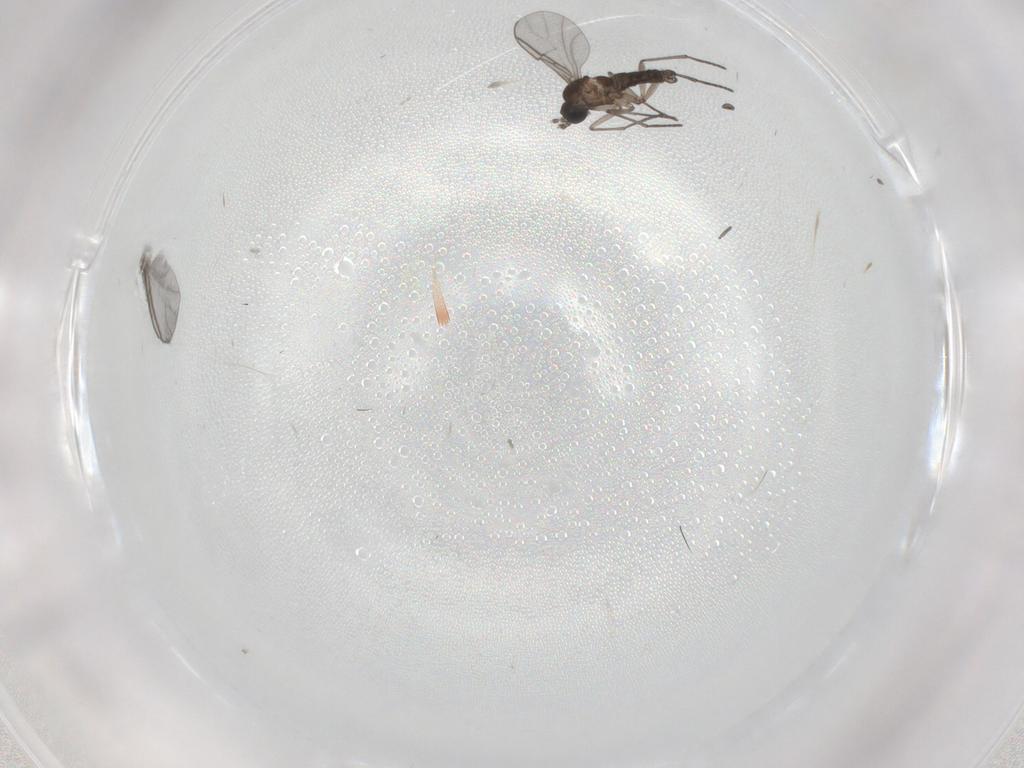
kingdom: Animalia
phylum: Arthropoda
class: Insecta
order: Diptera
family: Sciaridae
